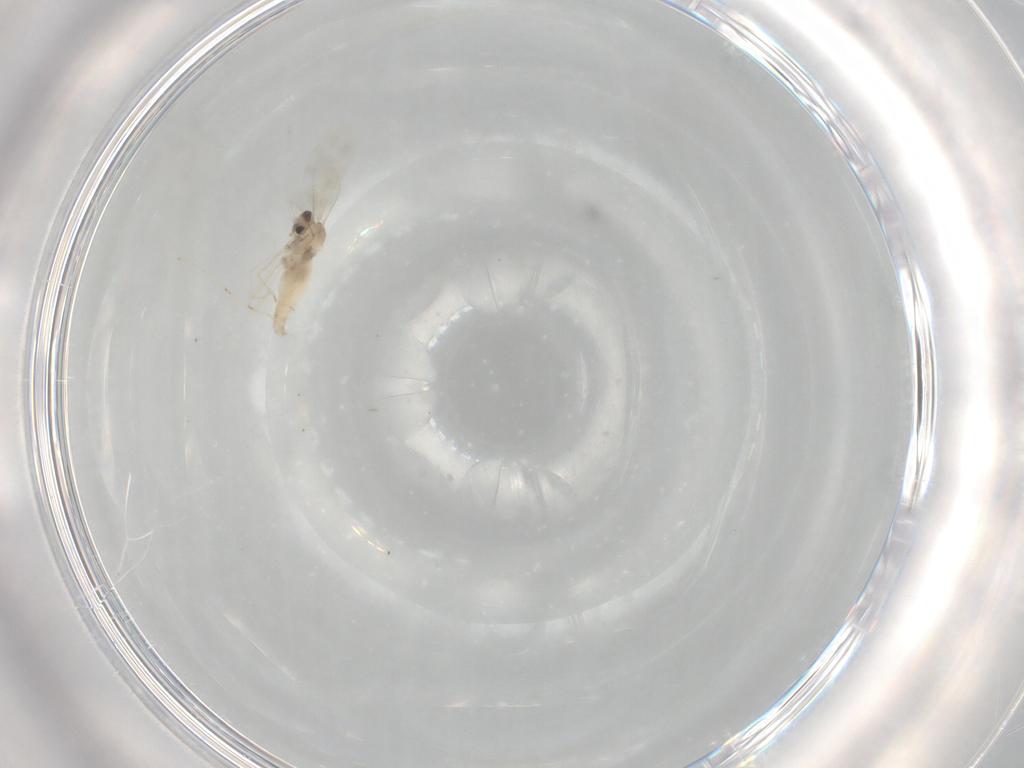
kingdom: Animalia
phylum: Arthropoda
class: Insecta
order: Diptera
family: Cecidomyiidae
